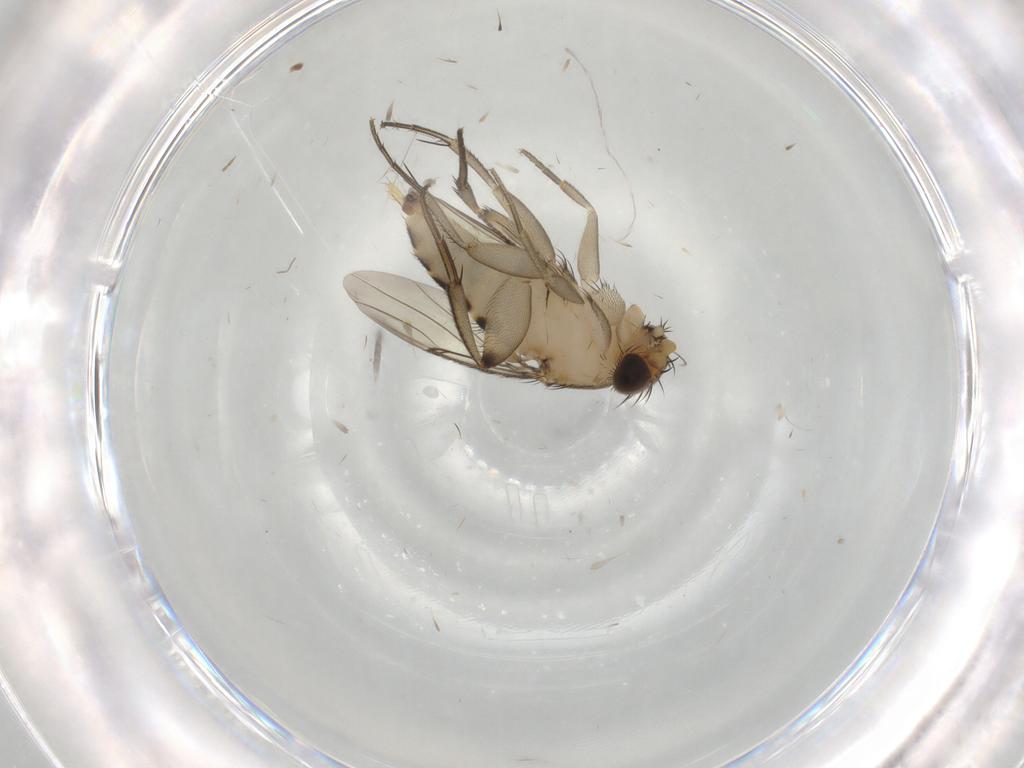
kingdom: Animalia
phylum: Arthropoda
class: Insecta
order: Diptera
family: Phoridae
